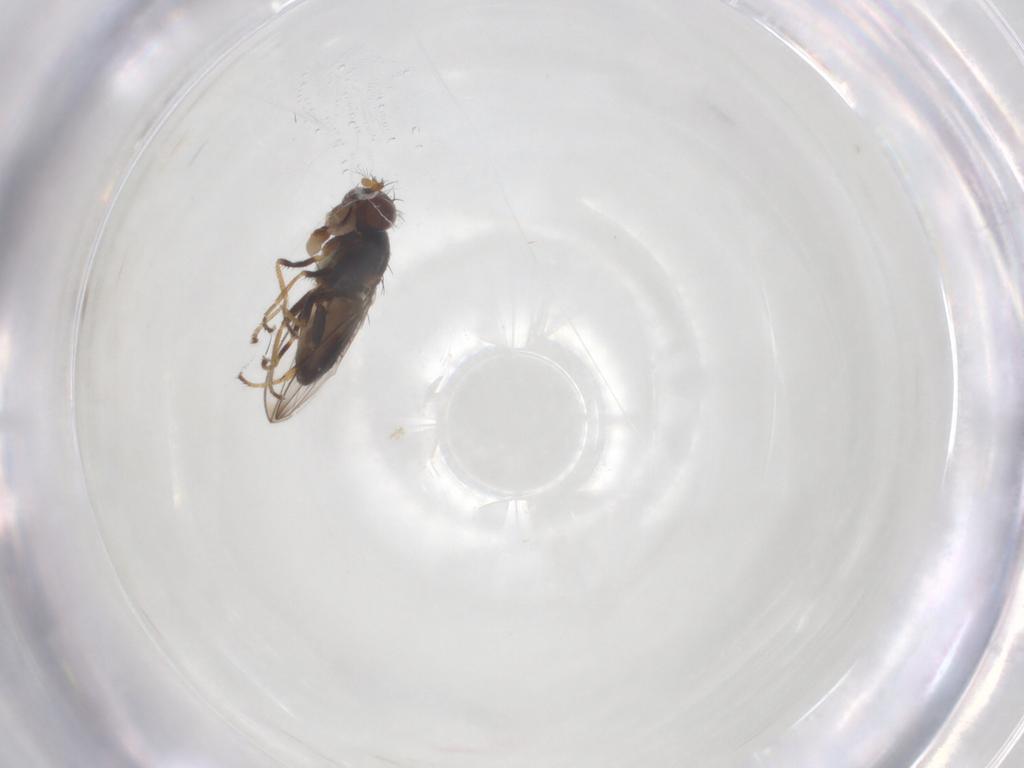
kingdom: Animalia
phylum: Arthropoda
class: Insecta
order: Diptera
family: Ephydridae
